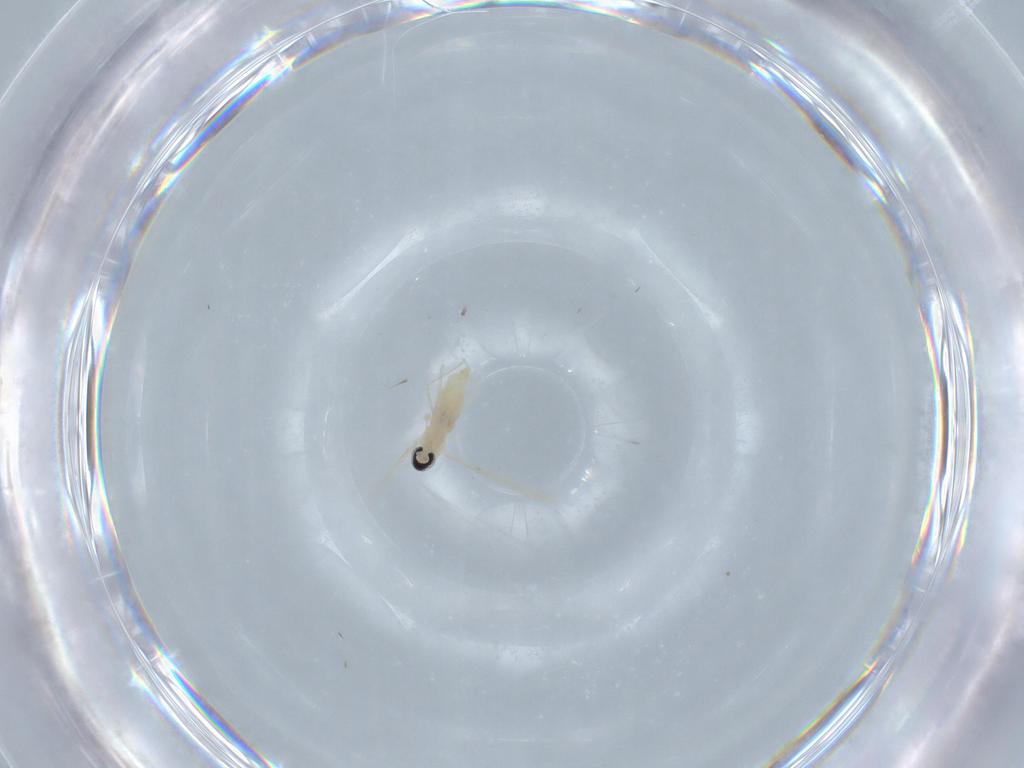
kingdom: Animalia
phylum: Arthropoda
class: Insecta
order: Diptera
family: Cecidomyiidae
